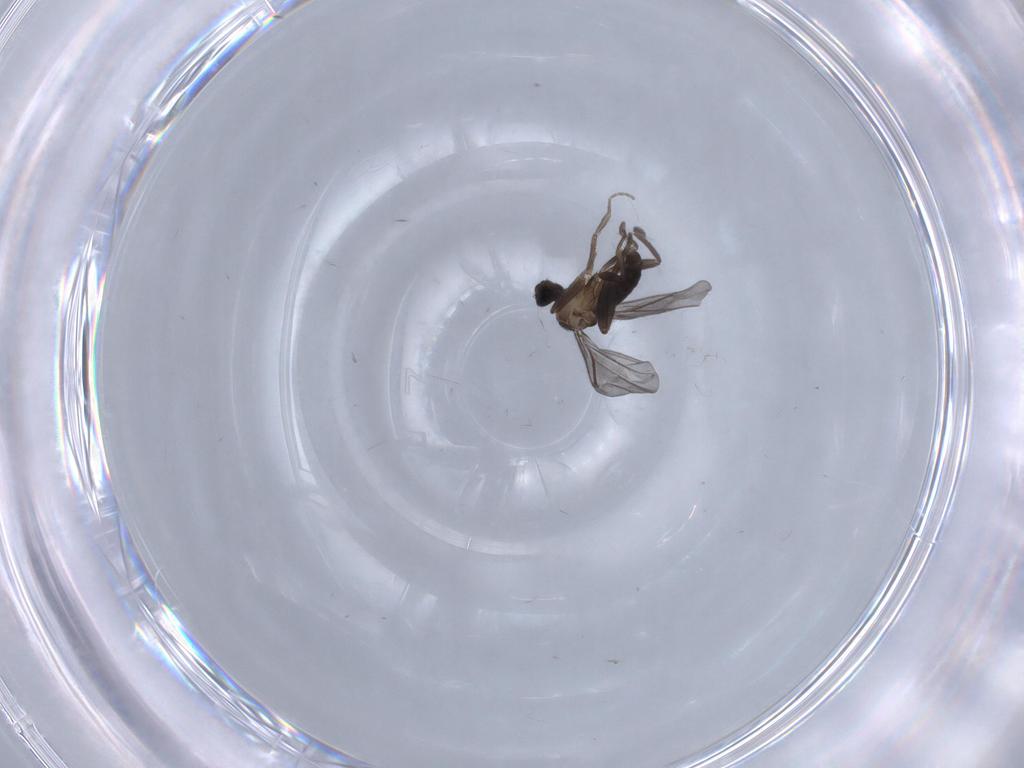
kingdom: Animalia
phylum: Arthropoda
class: Insecta
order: Diptera
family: Phoridae
